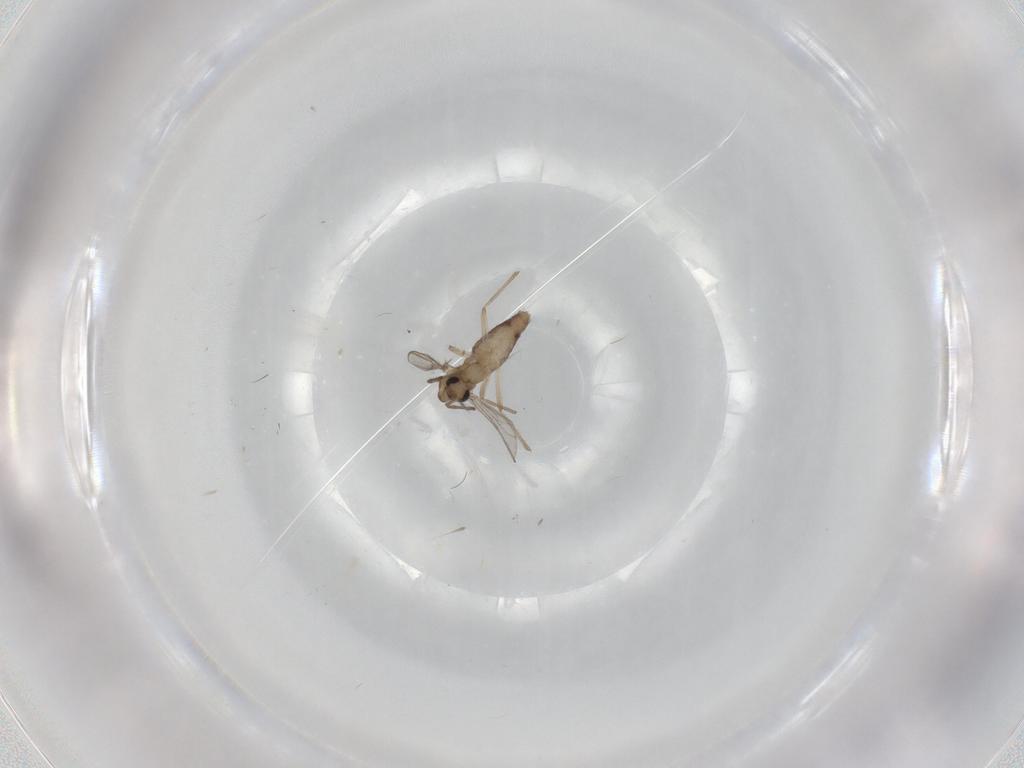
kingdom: Animalia
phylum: Arthropoda
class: Insecta
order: Diptera
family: Chironomidae
